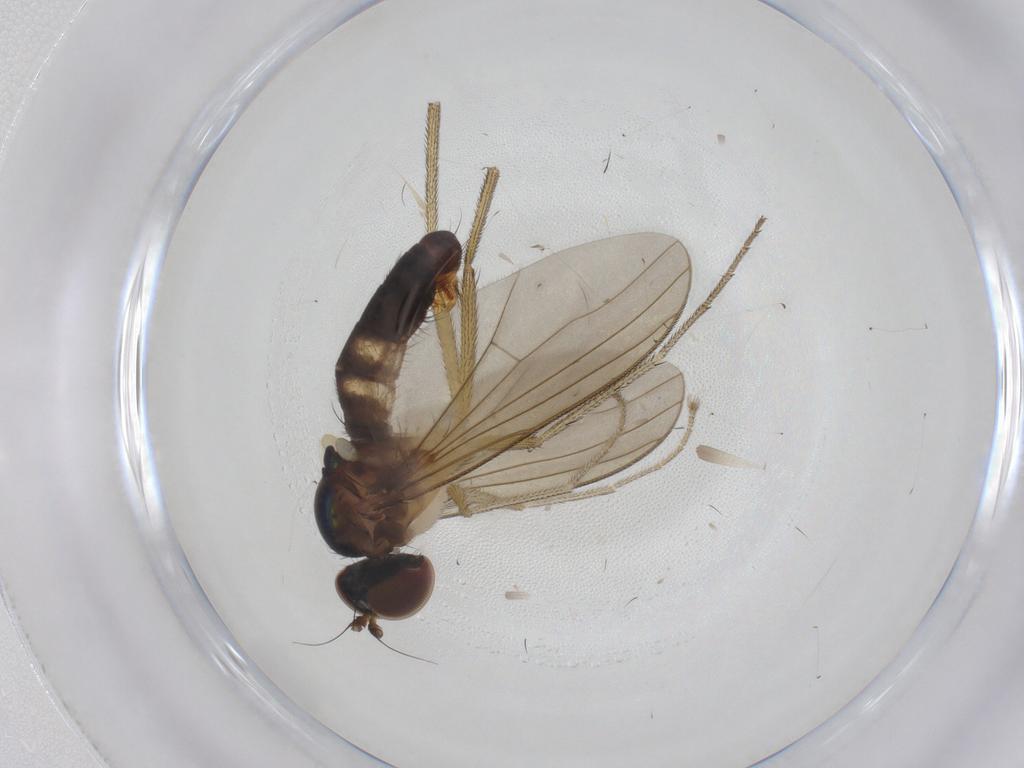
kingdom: Animalia
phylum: Arthropoda
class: Insecta
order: Diptera
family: Dolichopodidae
